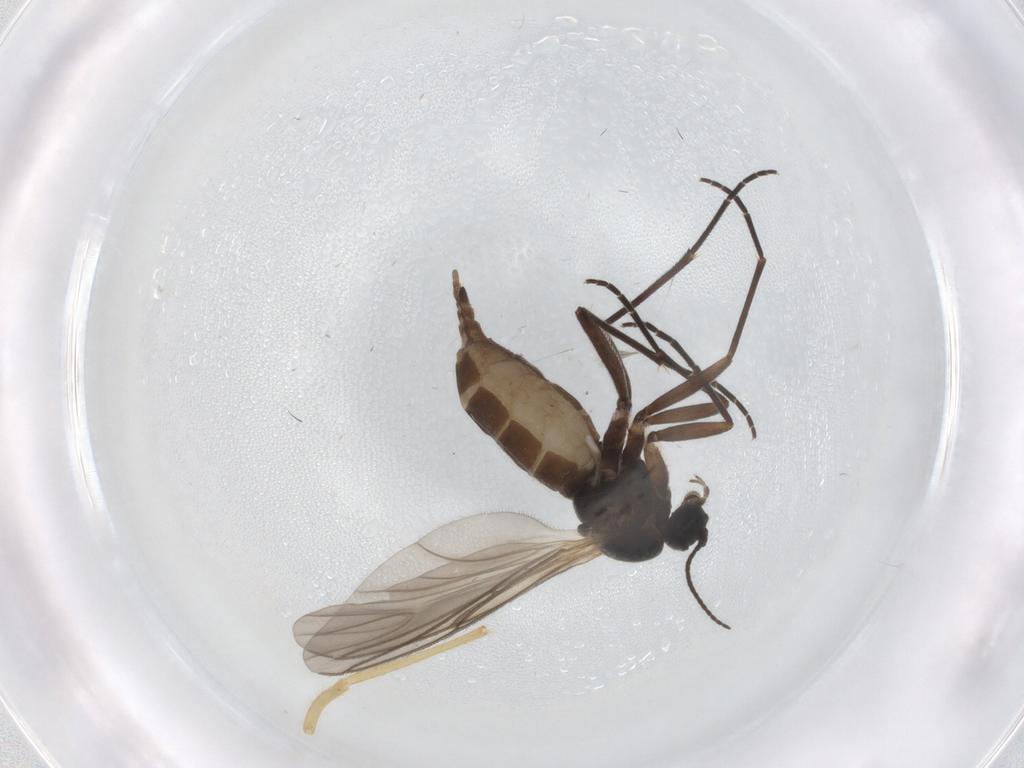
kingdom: Animalia
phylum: Arthropoda
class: Insecta
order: Diptera
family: Sciaridae
